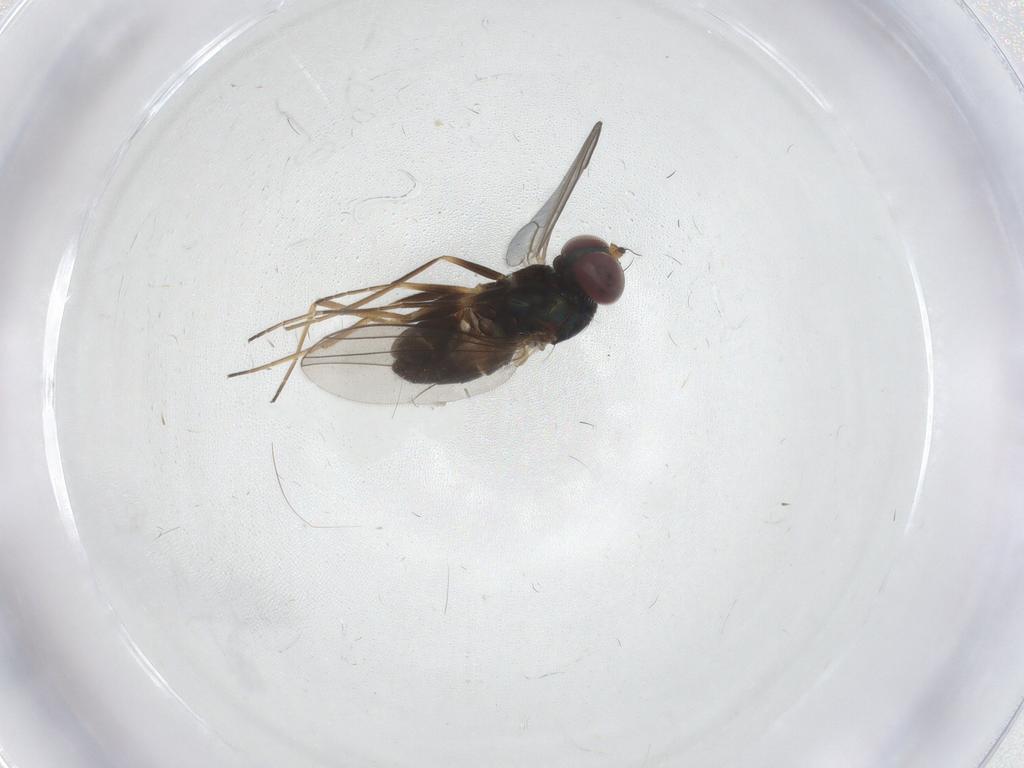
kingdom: Animalia
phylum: Arthropoda
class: Insecta
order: Diptera
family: Dolichopodidae
